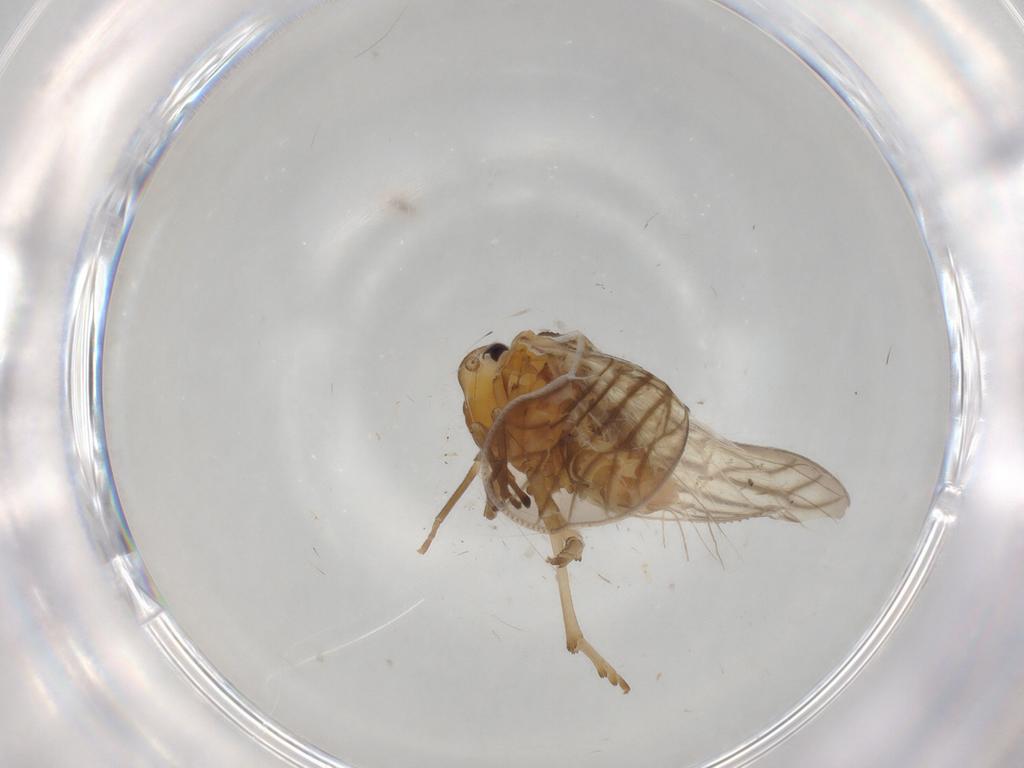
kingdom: Animalia
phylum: Arthropoda
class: Insecta
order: Hemiptera
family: Meenoplidae
